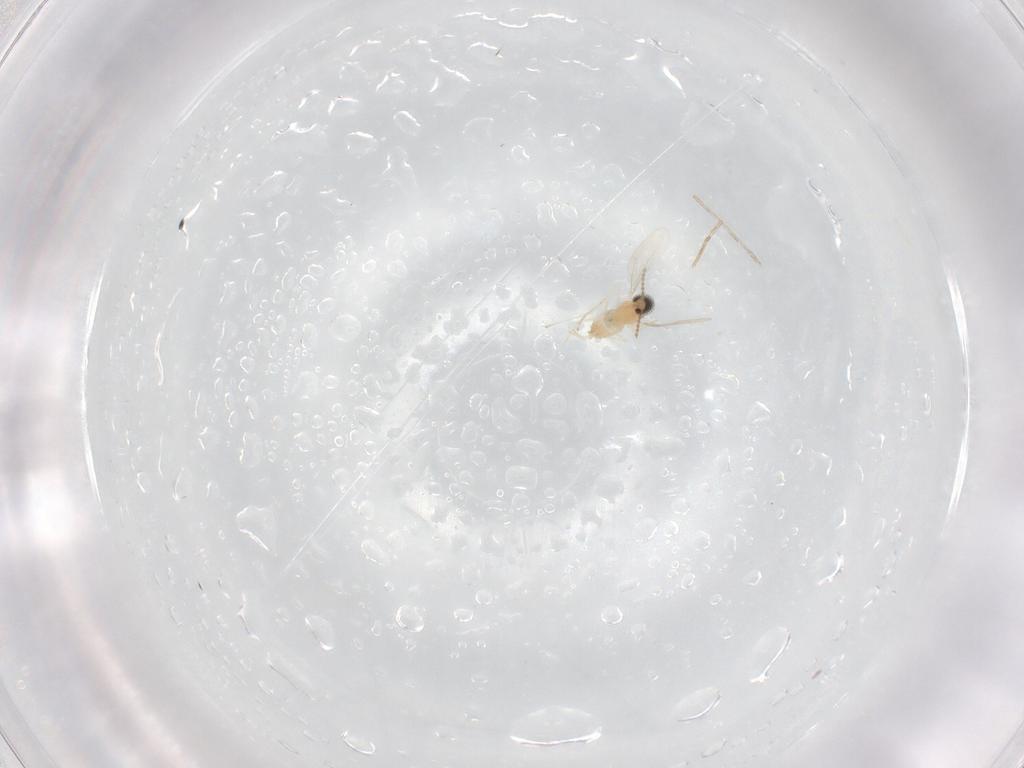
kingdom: Animalia
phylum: Arthropoda
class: Insecta
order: Diptera
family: Cecidomyiidae
